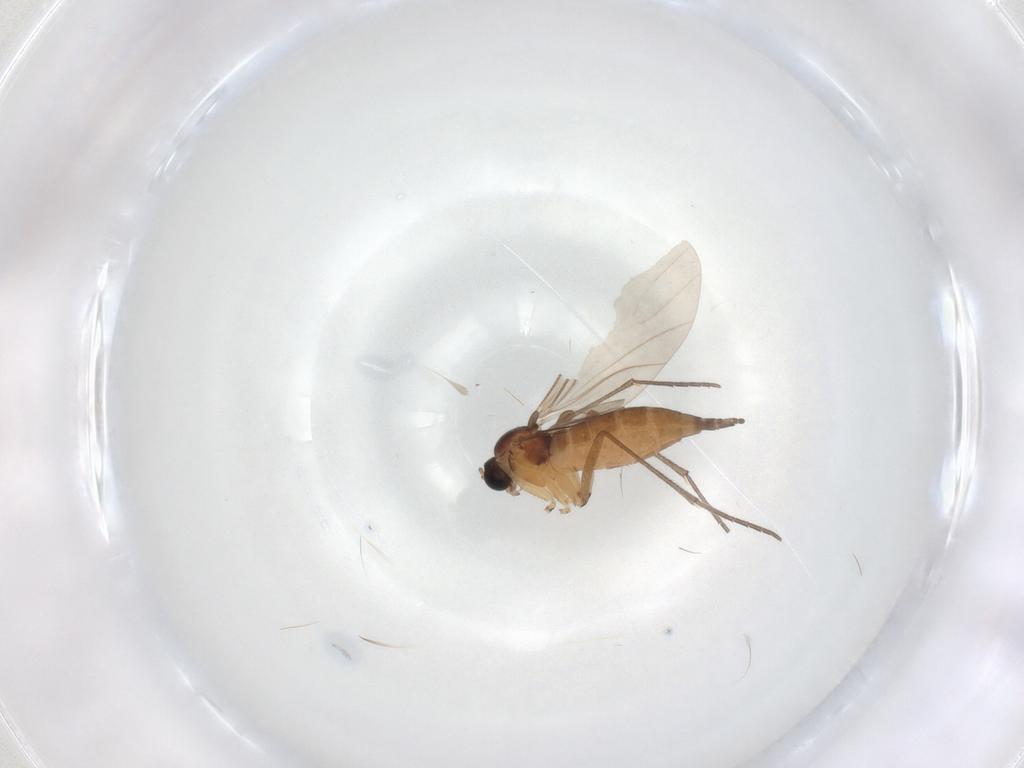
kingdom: Animalia
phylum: Arthropoda
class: Insecta
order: Diptera
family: Sciaridae
